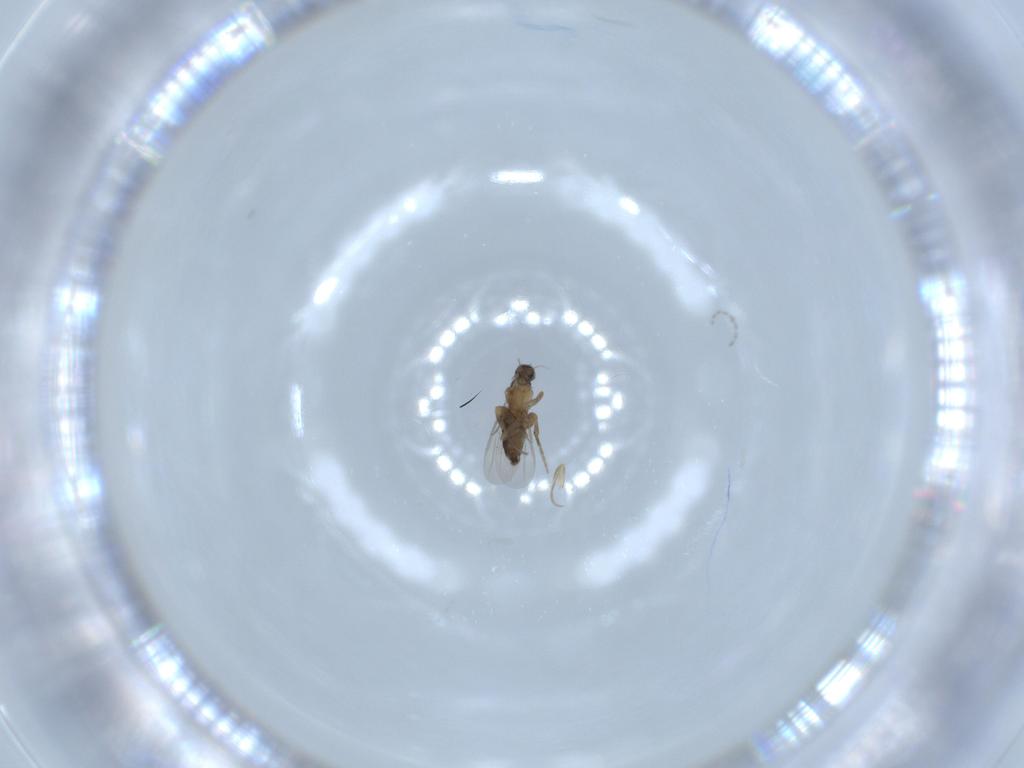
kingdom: Animalia
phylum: Arthropoda
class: Insecta
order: Diptera
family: Phoridae
